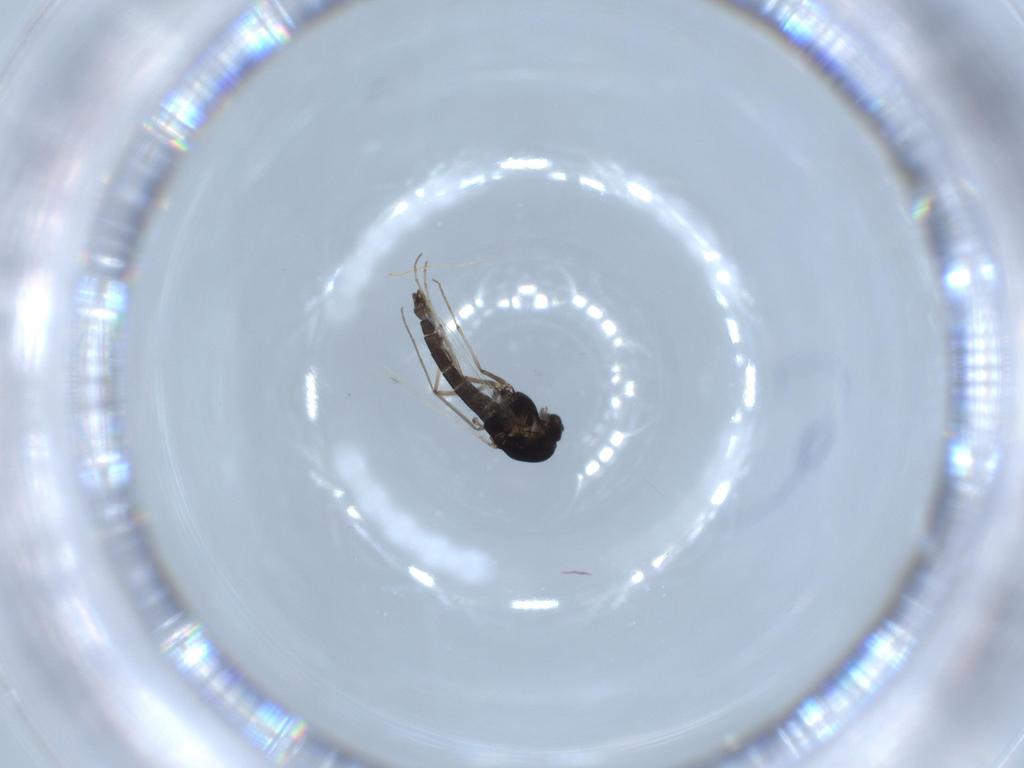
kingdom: Animalia
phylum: Arthropoda
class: Insecta
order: Diptera
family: Chironomidae
